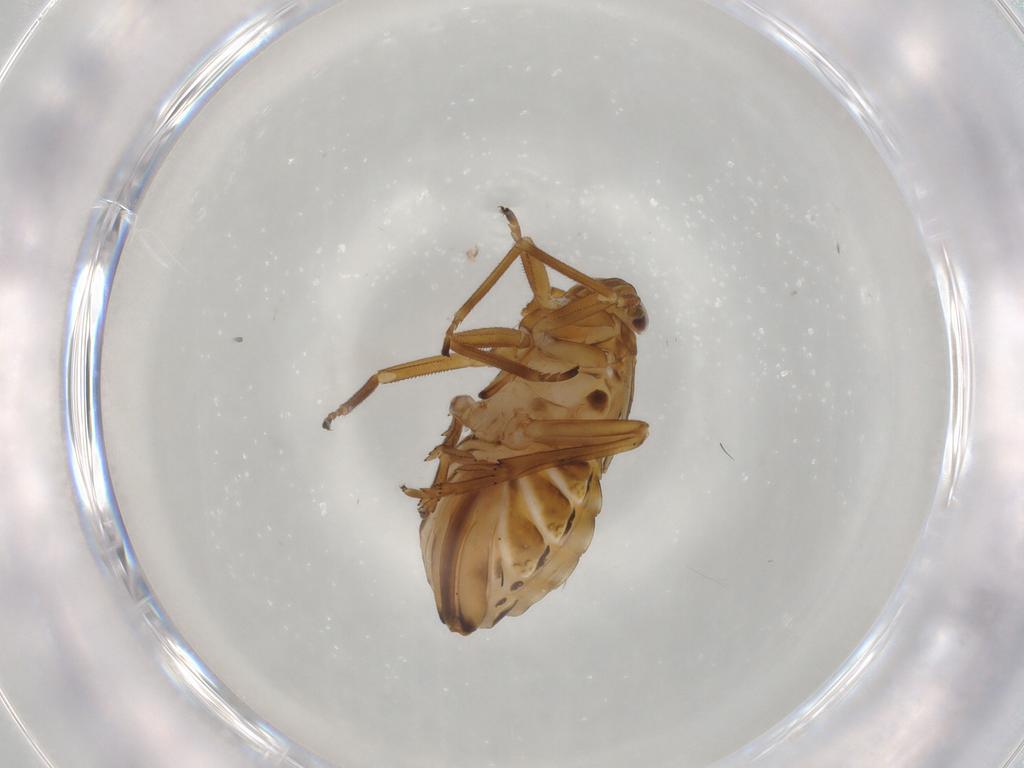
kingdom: Animalia
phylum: Arthropoda
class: Insecta
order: Hemiptera
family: Delphacidae
